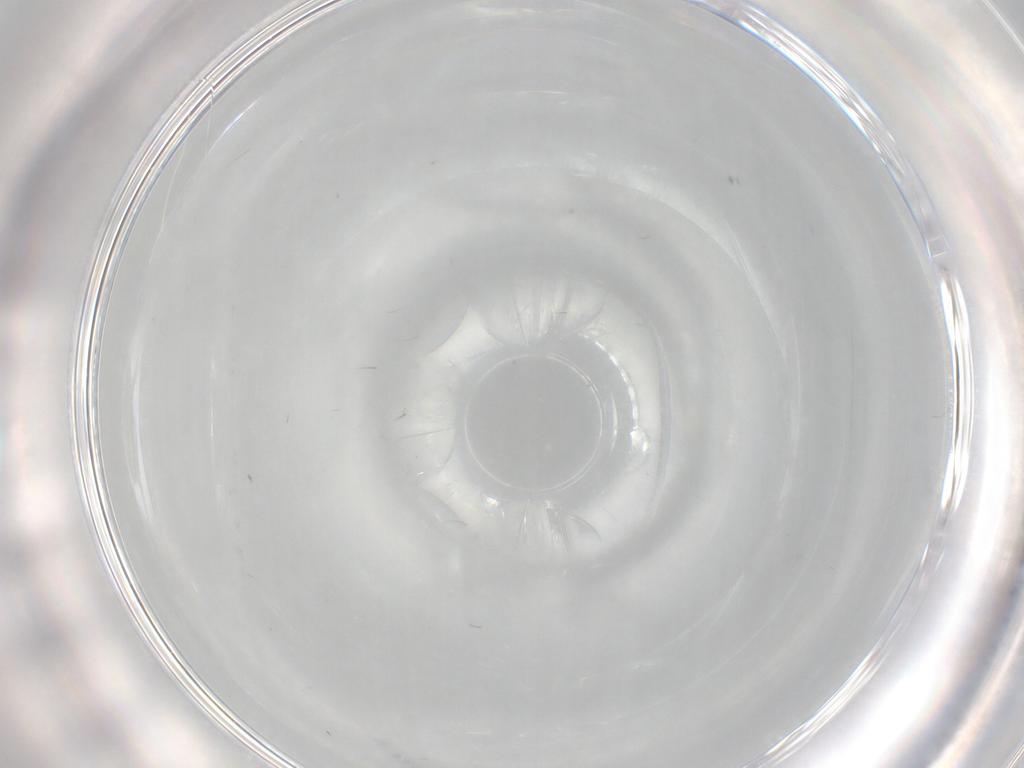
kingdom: Animalia
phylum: Arthropoda
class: Insecta
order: Diptera
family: Cecidomyiidae
